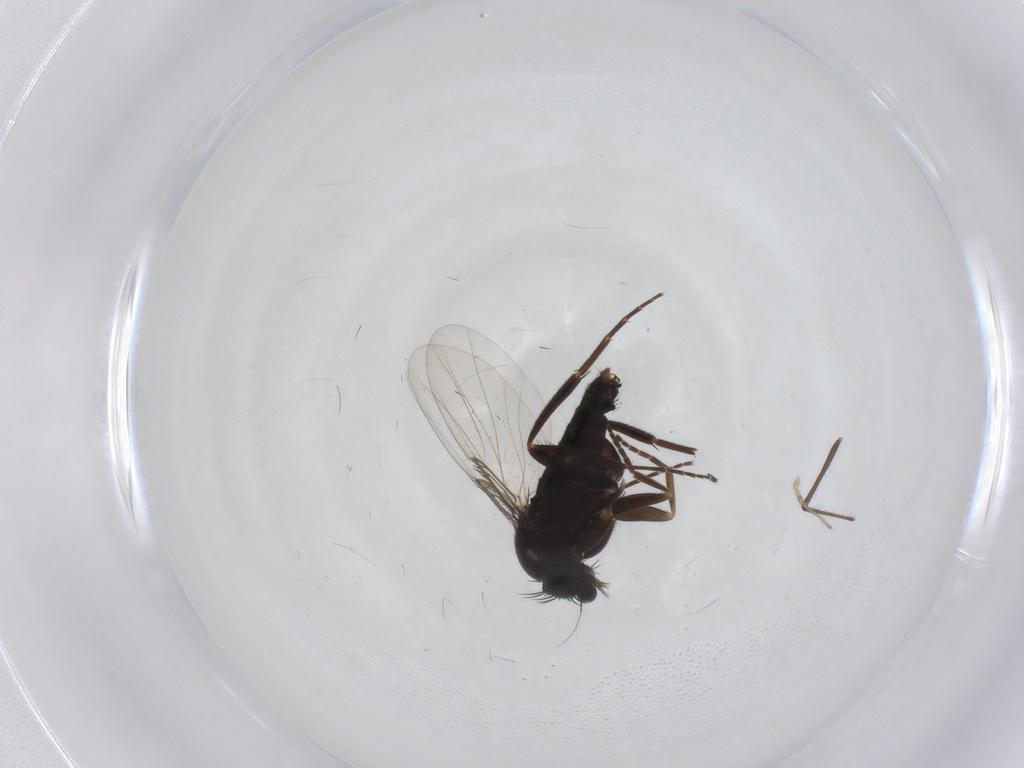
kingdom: Animalia
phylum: Arthropoda
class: Insecta
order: Diptera
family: Phoridae
